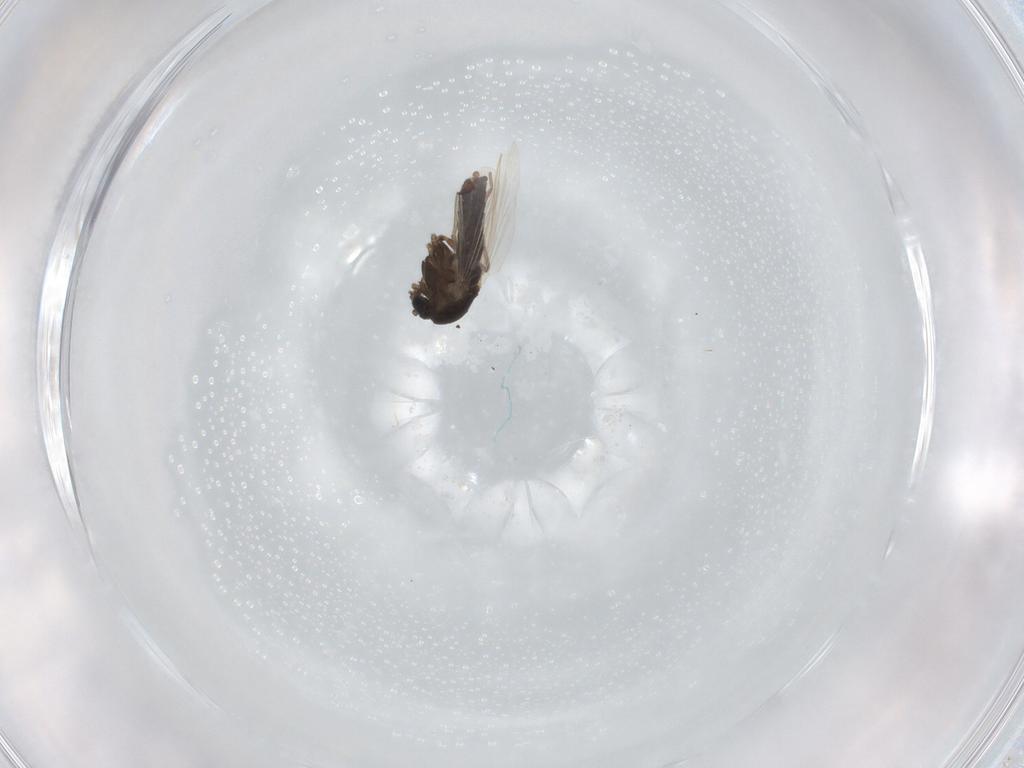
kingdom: Animalia
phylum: Arthropoda
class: Insecta
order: Diptera
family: Chironomidae
